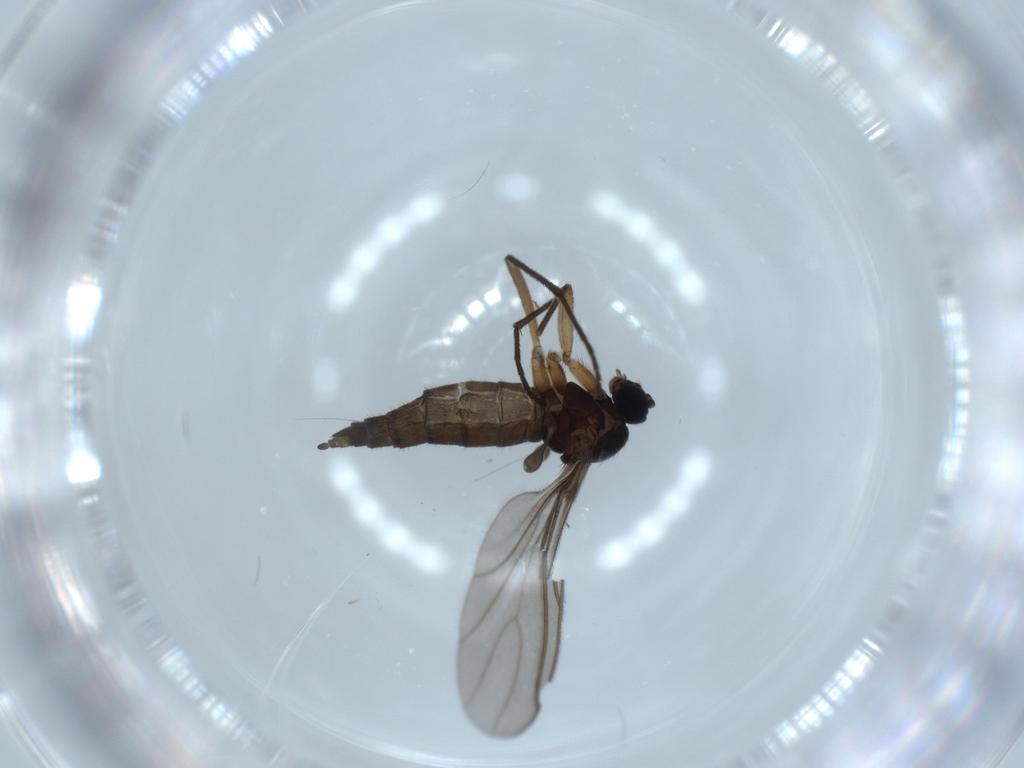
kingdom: Animalia
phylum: Arthropoda
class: Insecta
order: Diptera
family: Sciaridae
